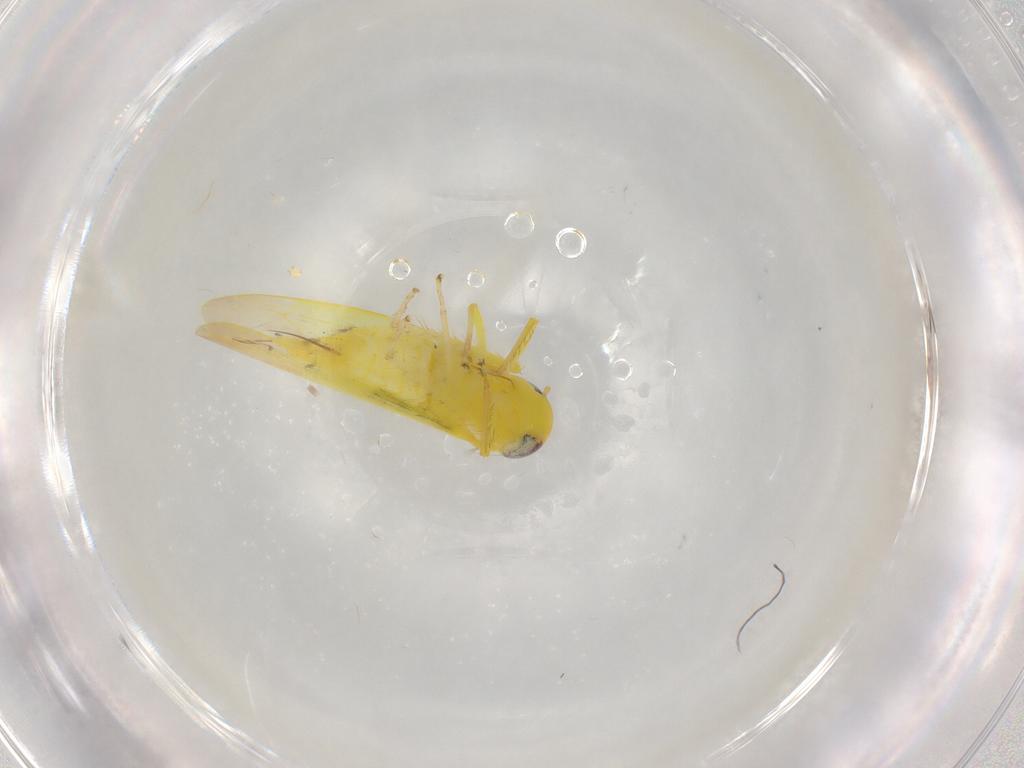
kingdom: Animalia
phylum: Arthropoda
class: Insecta
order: Hemiptera
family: Cicadellidae
